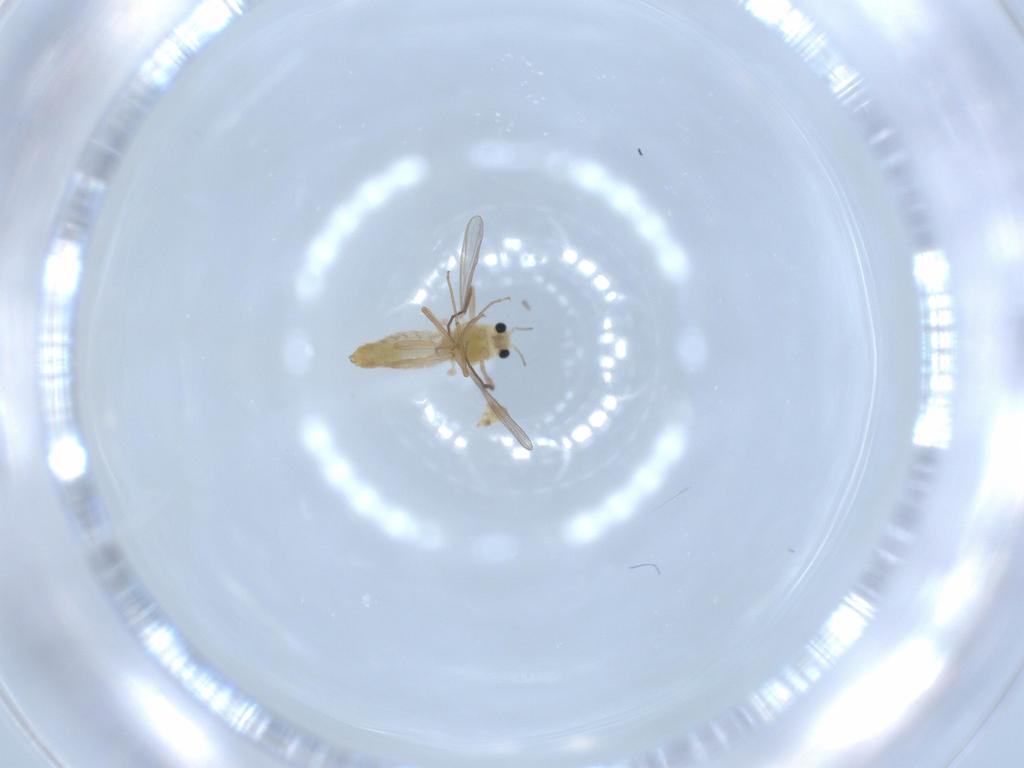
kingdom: Animalia
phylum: Arthropoda
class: Insecta
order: Diptera
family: Chironomidae
